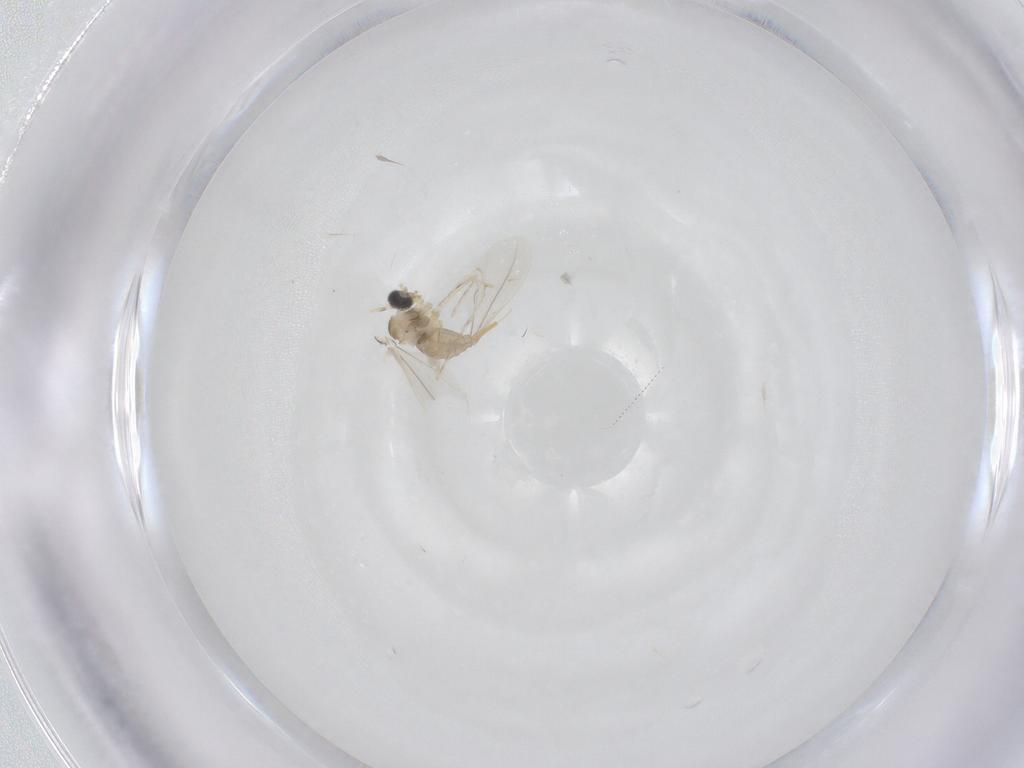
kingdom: Animalia
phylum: Arthropoda
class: Insecta
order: Diptera
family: Cecidomyiidae
